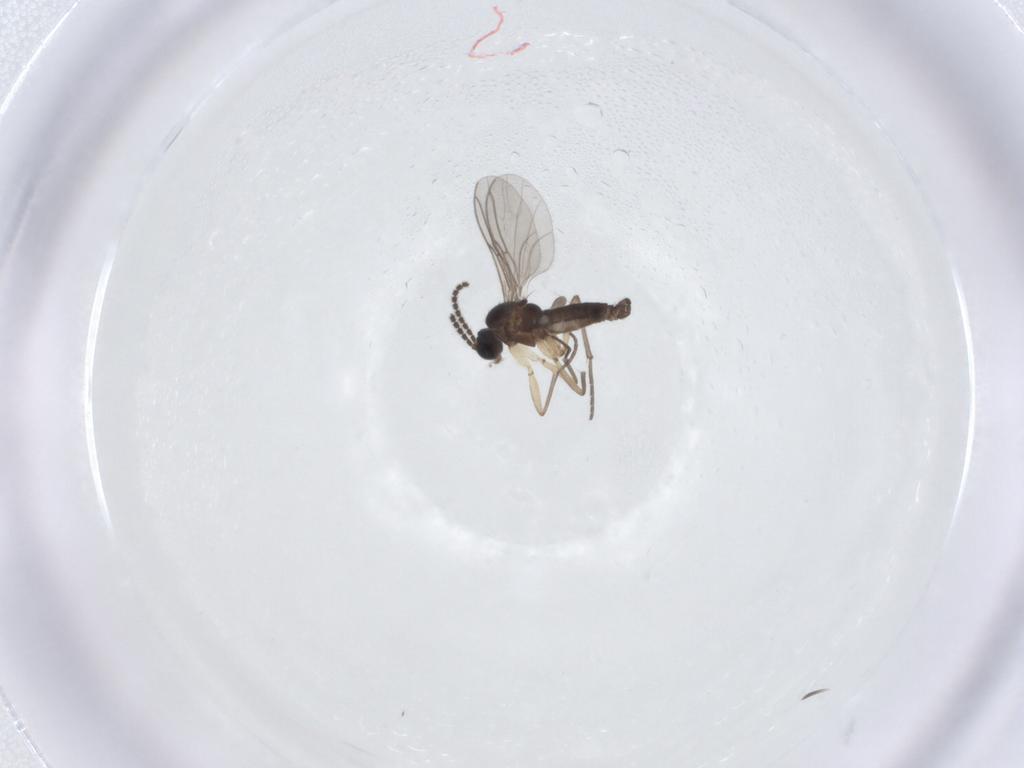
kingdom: Animalia
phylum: Arthropoda
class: Insecta
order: Diptera
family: Sciaridae
